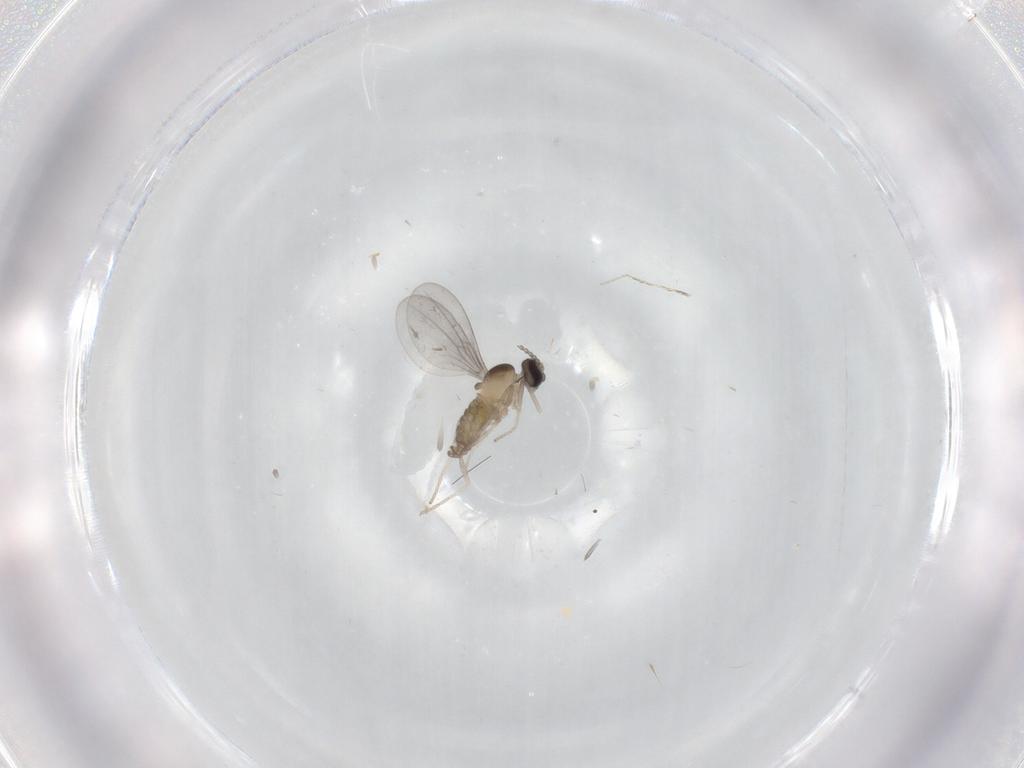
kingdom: Animalia
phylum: Arthropoda
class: Insecta
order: Diptera
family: Cecidomyiidae
